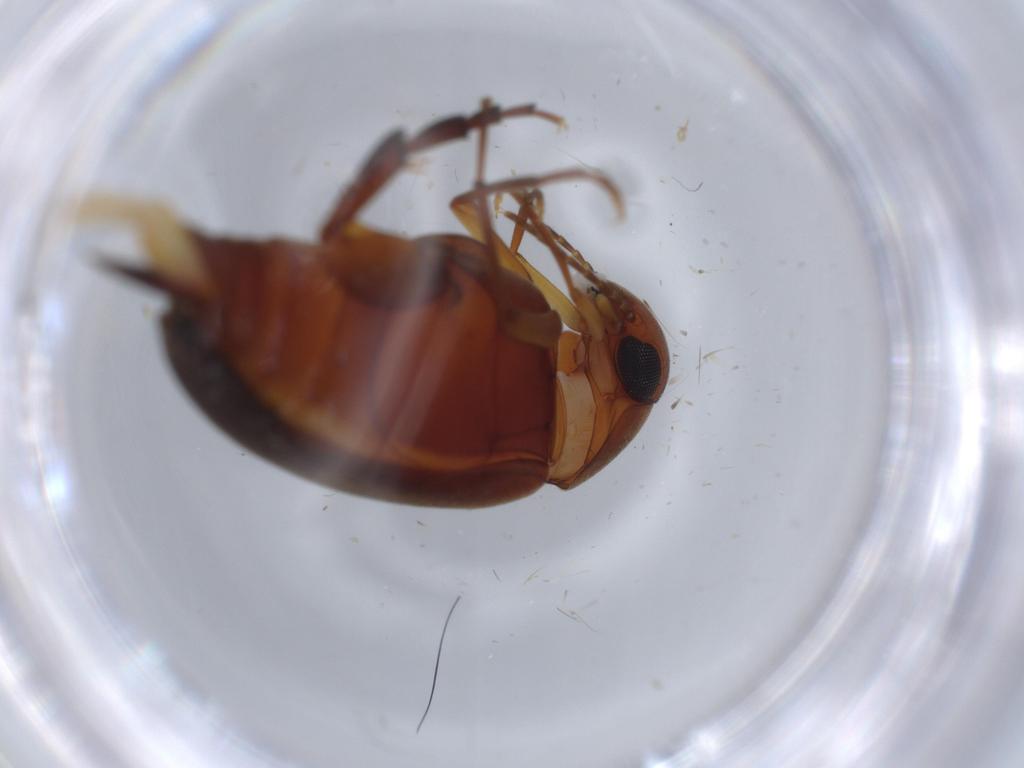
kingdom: Animalia
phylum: Arthropoda
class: Insecta
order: Coleoptera
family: Mordellidae
